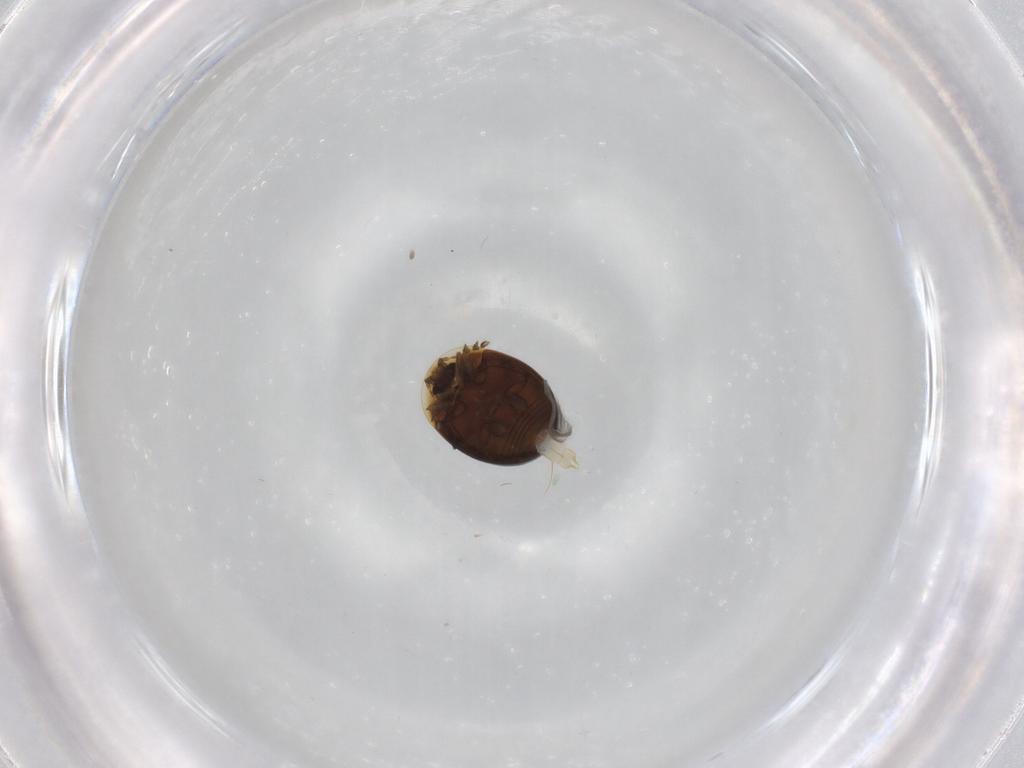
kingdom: Animalia
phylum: Arthropoda
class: Insecta
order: Coleoptera
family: Corylophidae
